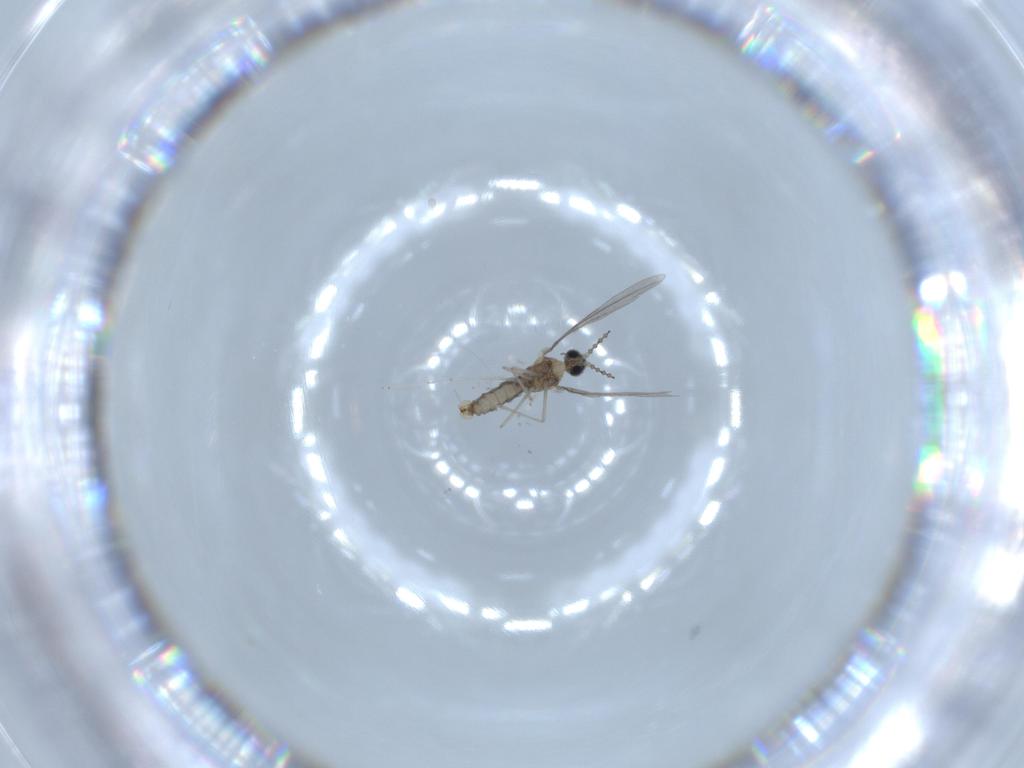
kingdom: Animalia
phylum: Arthropoda
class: Insecta
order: Diptera
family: Cecidomyiidae
